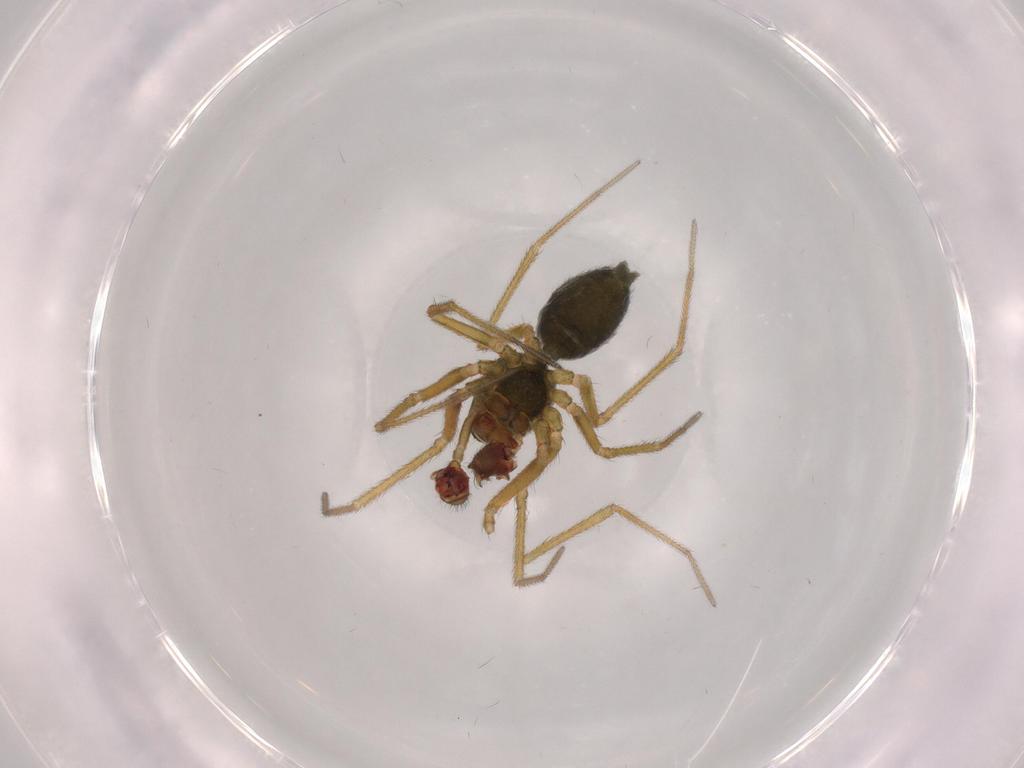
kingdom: Animalia
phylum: Arthropoda
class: Arachnida
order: Araneae
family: Linyphiidae
